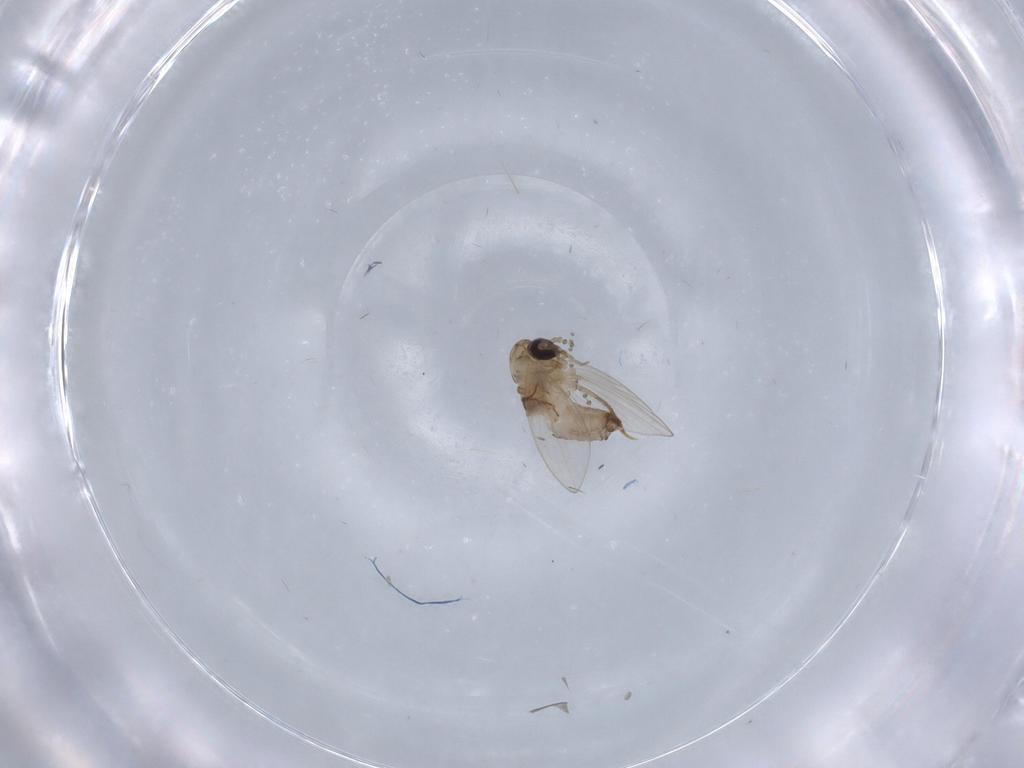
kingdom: Animalia
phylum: Arthropoda
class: Insecta
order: Diptera
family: Psychodidae
